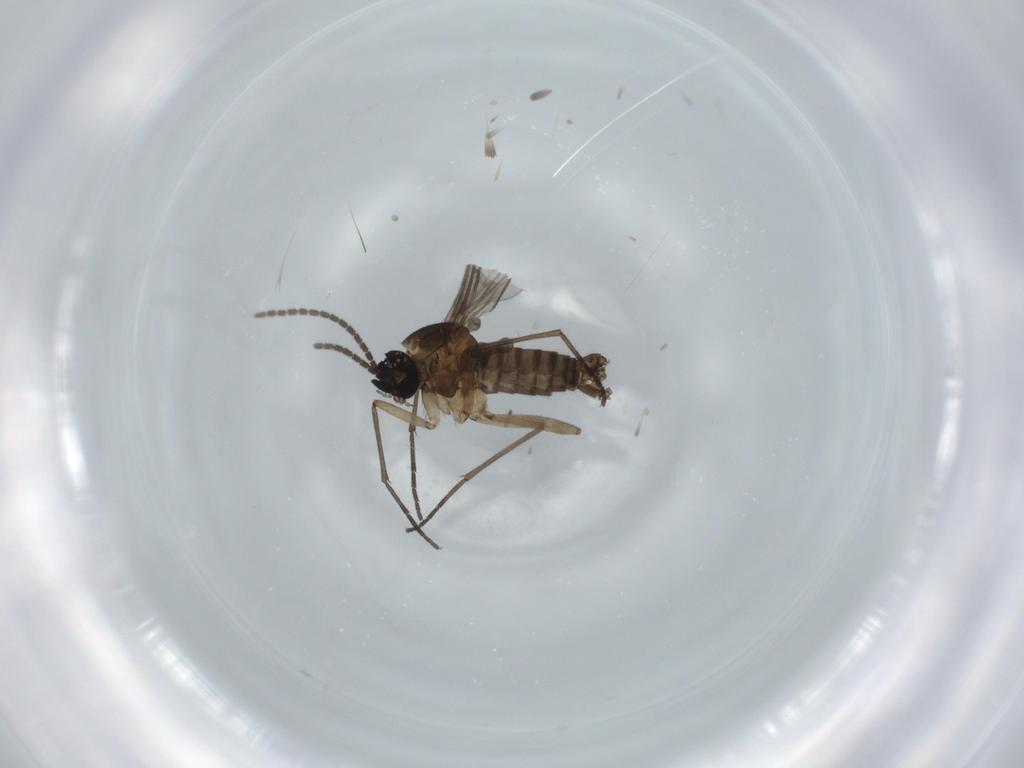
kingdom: Animalia
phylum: Arthropoda
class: Insecta
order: Diptera
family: Sciaridae
